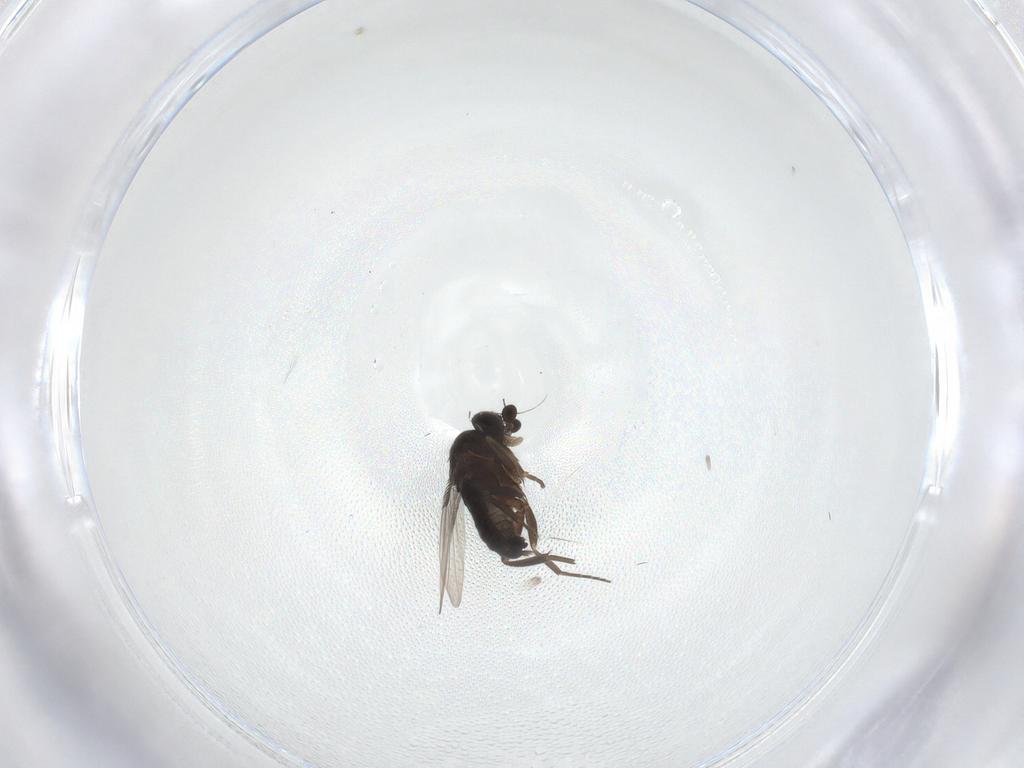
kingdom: Animalia
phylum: Arthropoda
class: Insecta
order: Diptera
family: Phoridae
